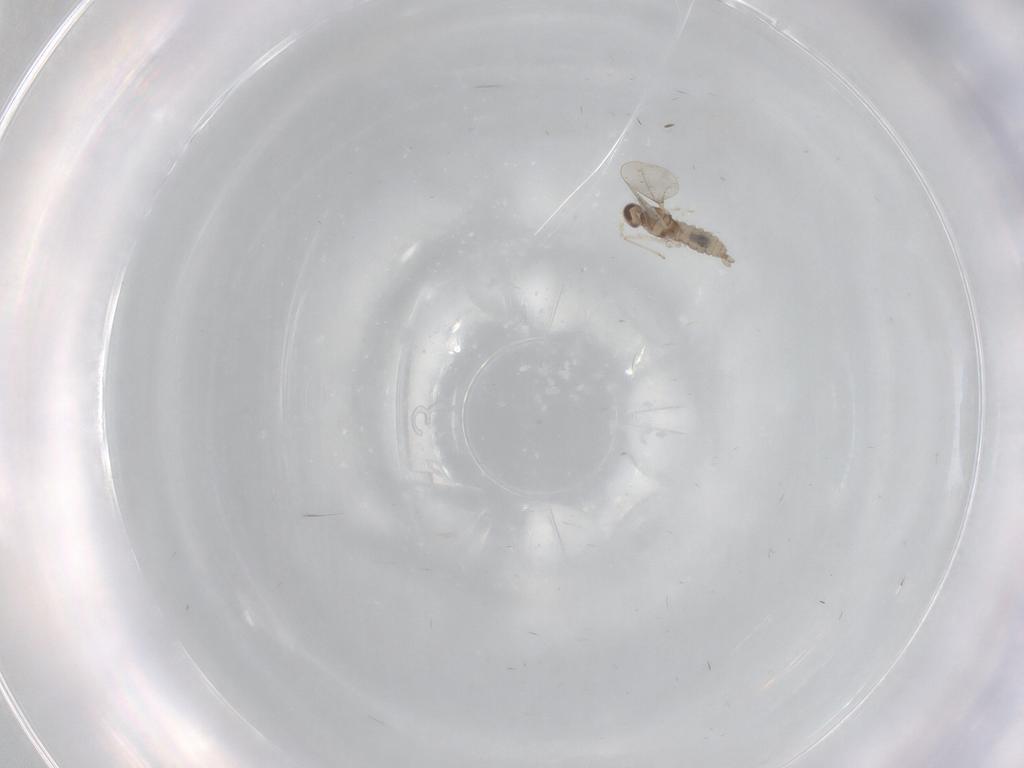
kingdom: Animalia
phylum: Arthropoda
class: Insecta
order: Diptera
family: Cecidomyiidae
